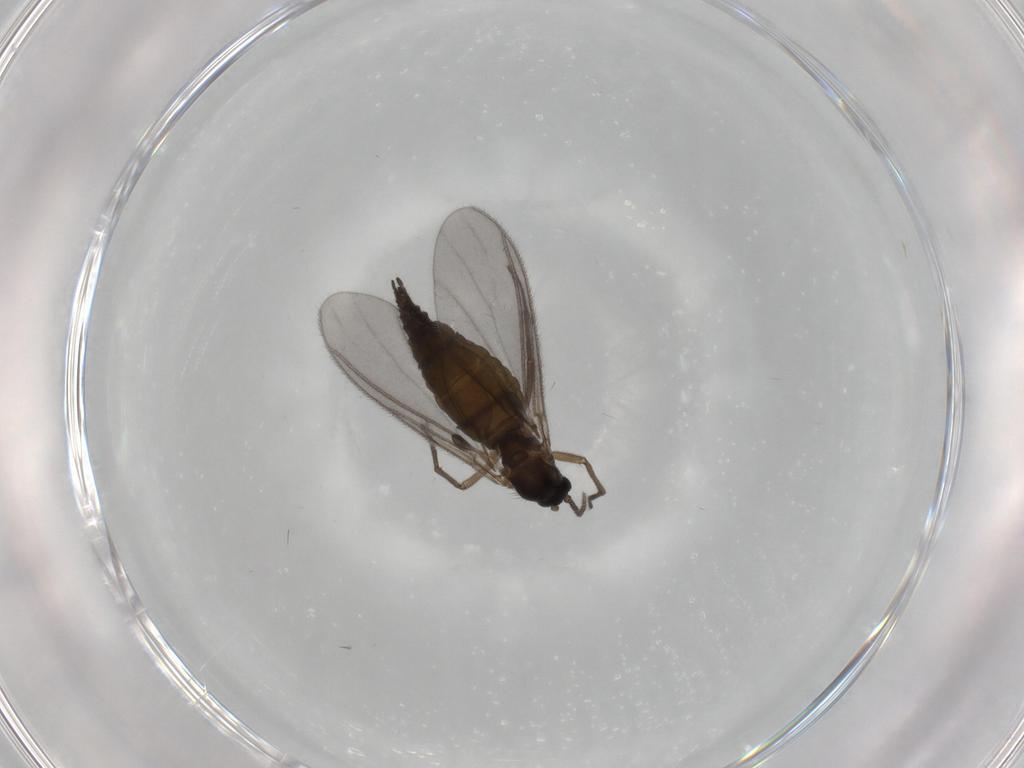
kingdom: Animalia
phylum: Arthropoda
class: Insecta
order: Diptera
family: Sciaridae
